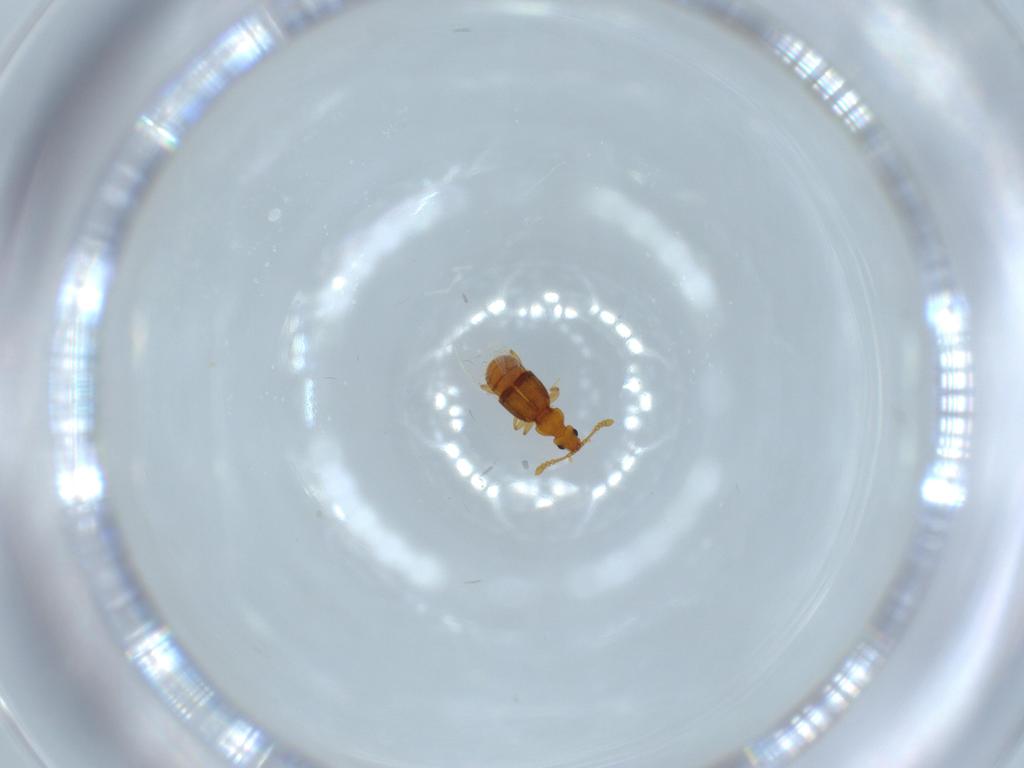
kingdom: Animalia
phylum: Arthropoda
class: Insecta
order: Coleoptera
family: Staphylinidae
